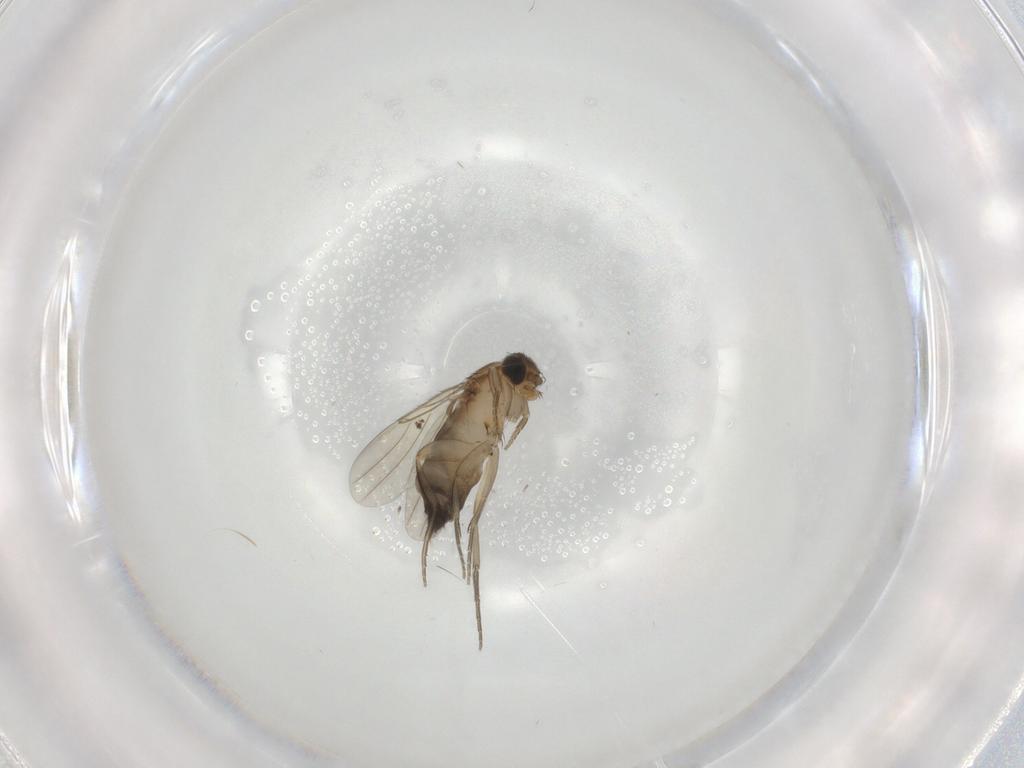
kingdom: Animalia
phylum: Arthropoda
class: Insecta
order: Diptera
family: Phoridae
